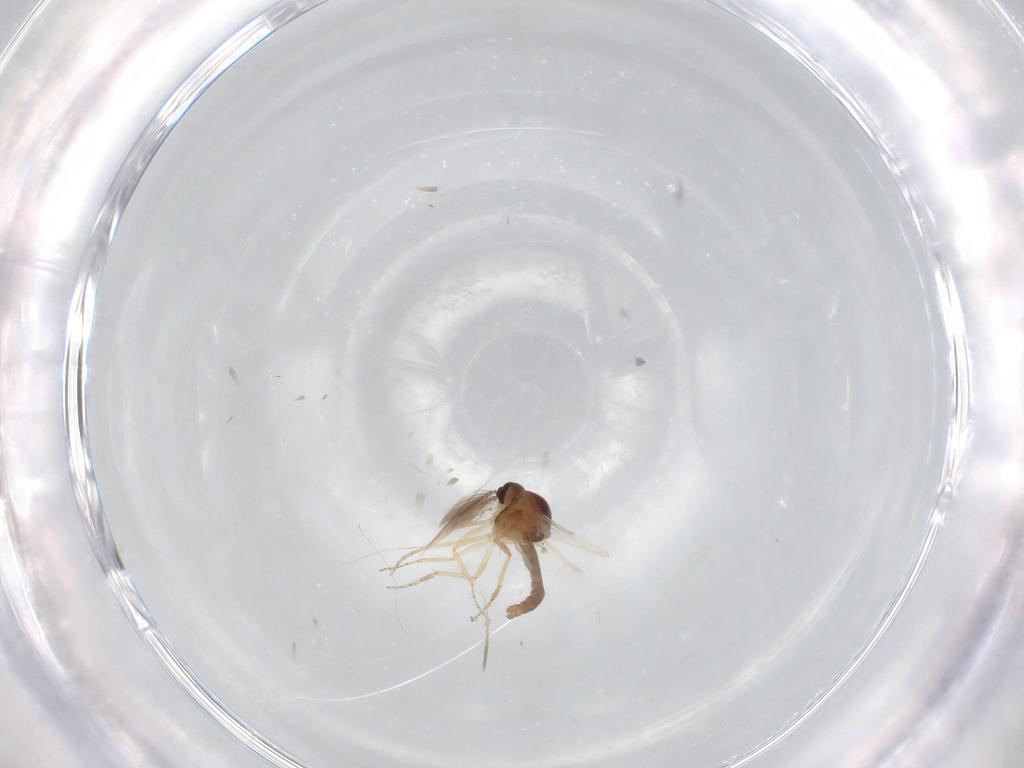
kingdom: Animalia
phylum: Arthropoda
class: Insecta
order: Diptera
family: Ceratopogonidae
